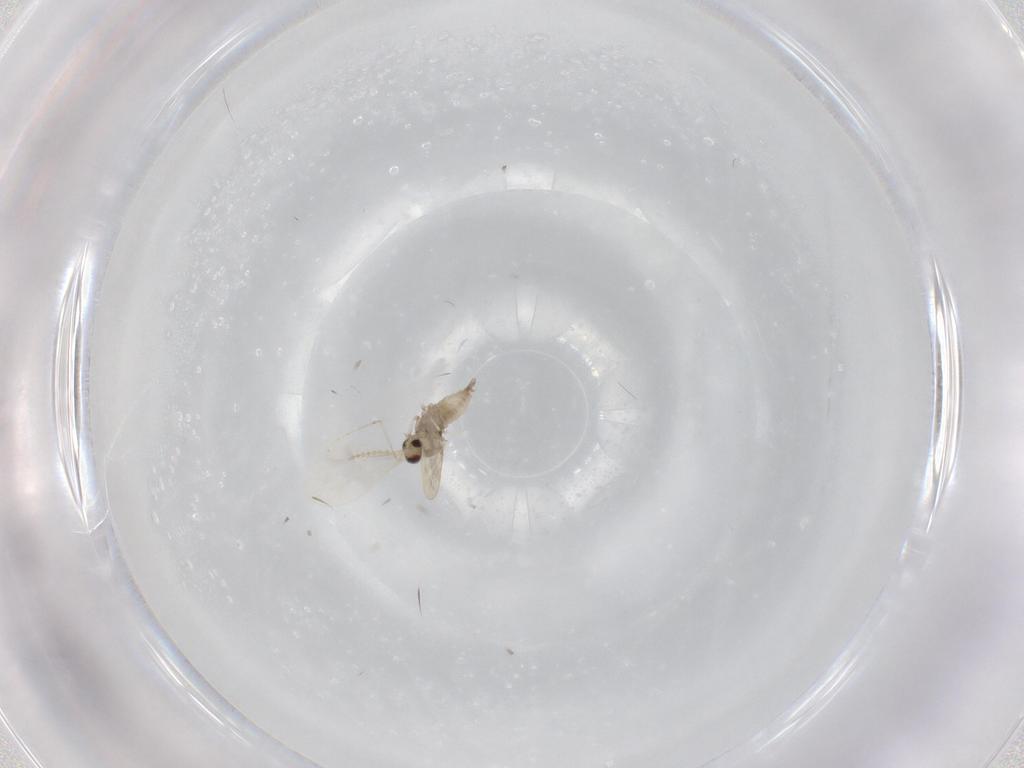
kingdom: Animalia
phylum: Arthropoda
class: Insecta
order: Diptera
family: Cecidomyiidae
